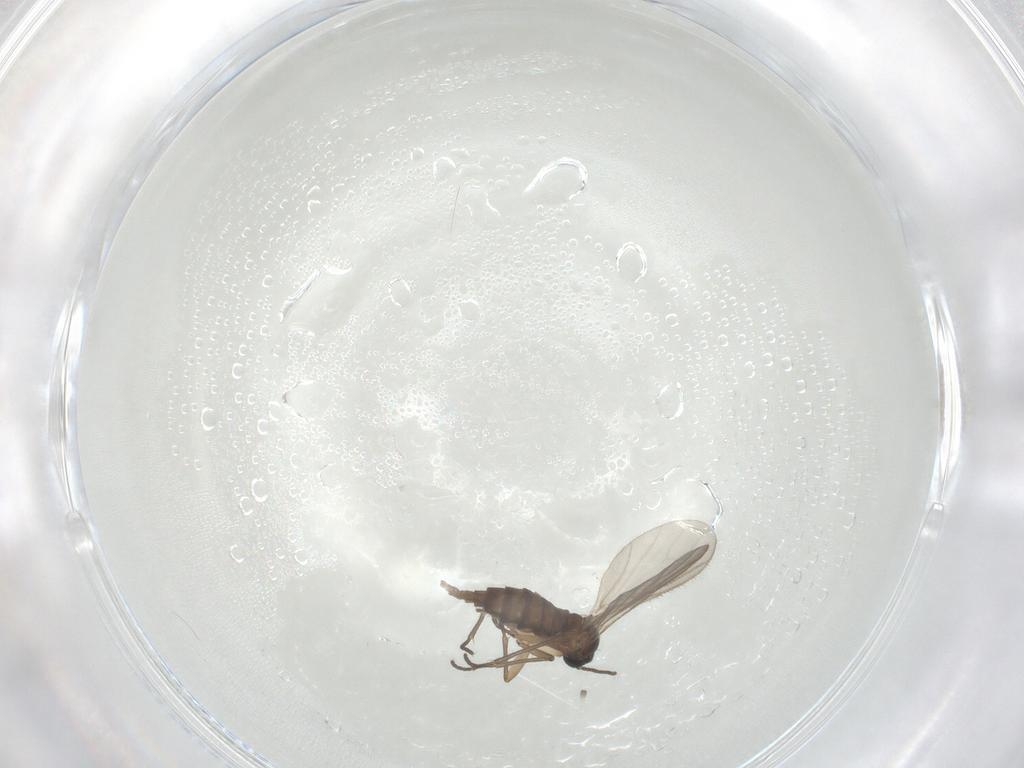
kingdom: Animalia
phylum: Arthropoda
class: Insecta
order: Diptera
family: Sciaridae
